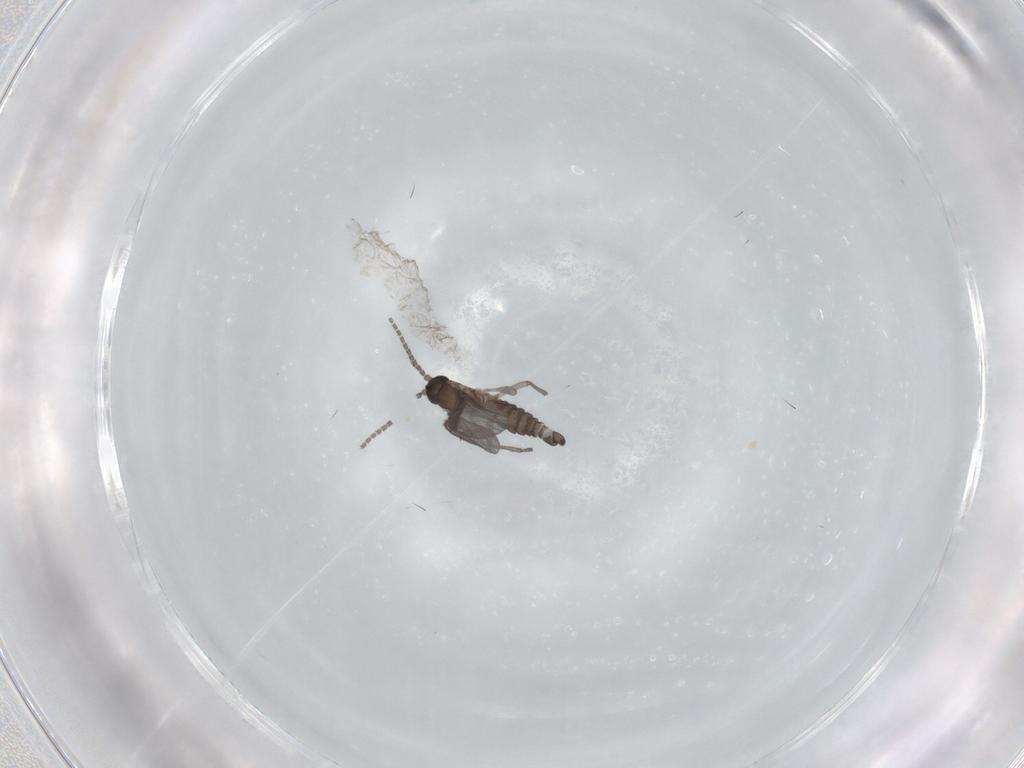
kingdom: Animalia
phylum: Arthropoda
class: Insecta
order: Diptera
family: Sciaridae
